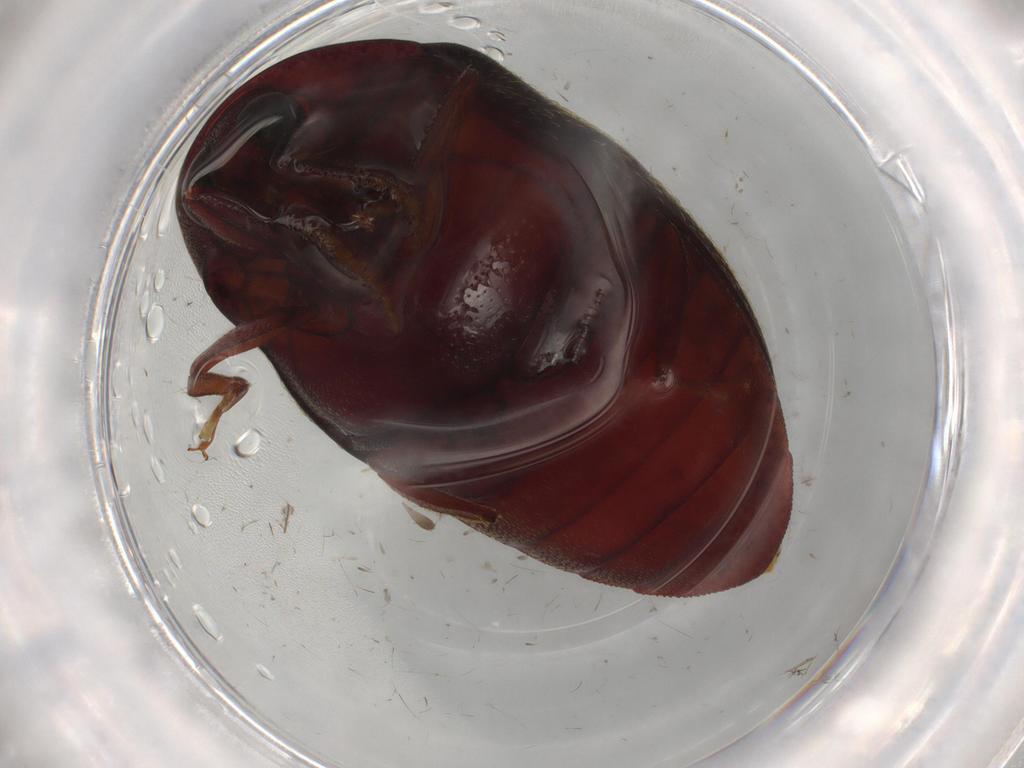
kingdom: Animalia
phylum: Arthropoda
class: Insecta
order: Coleoptera
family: Chelonariidae
